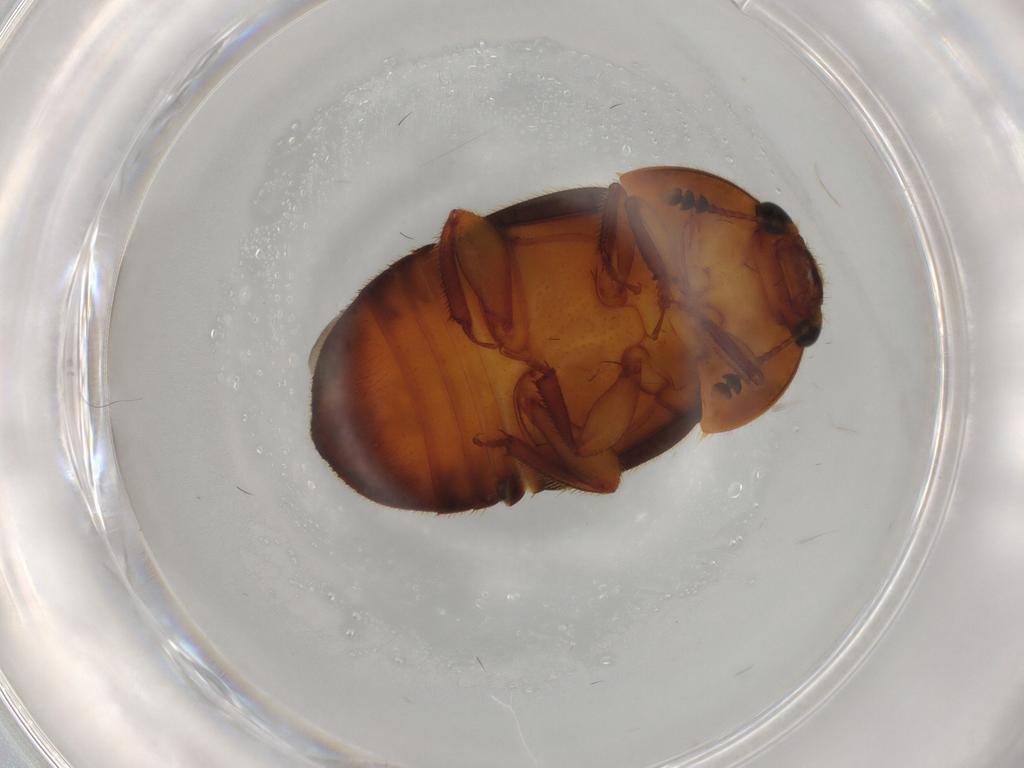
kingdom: Animalia
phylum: Arthropoda
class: Insecta
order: Coleoptera
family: Nitidulidae
